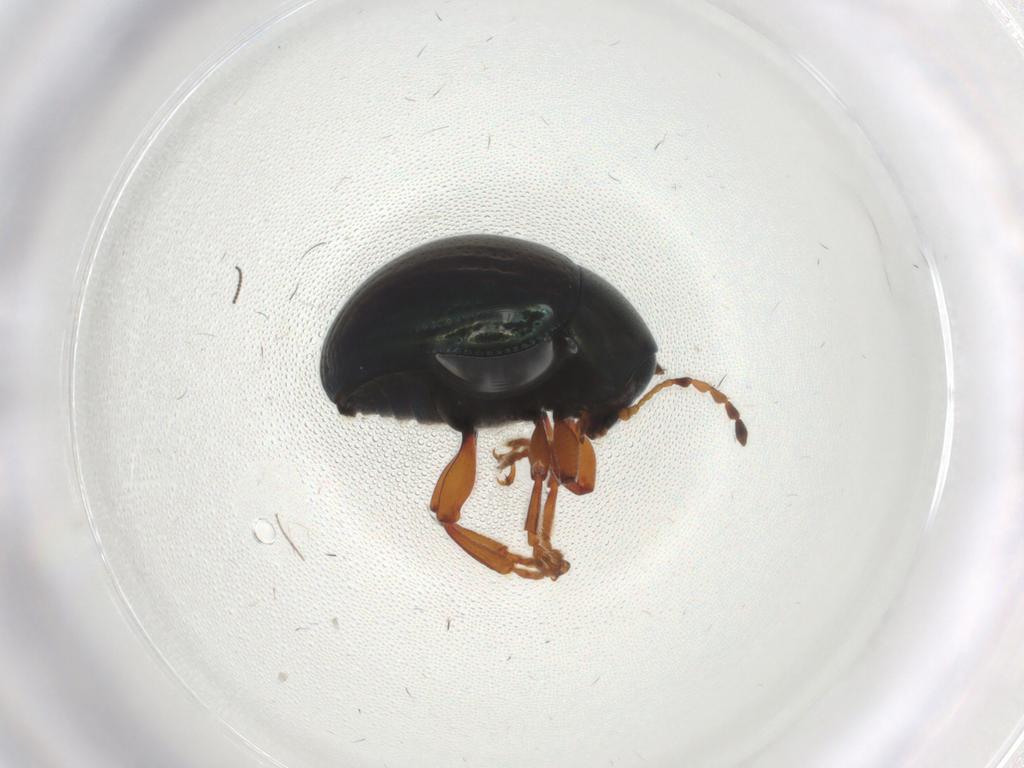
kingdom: Animalia
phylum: Arthropoda
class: Insecta
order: Coleoptera
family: Chrysomelidae
